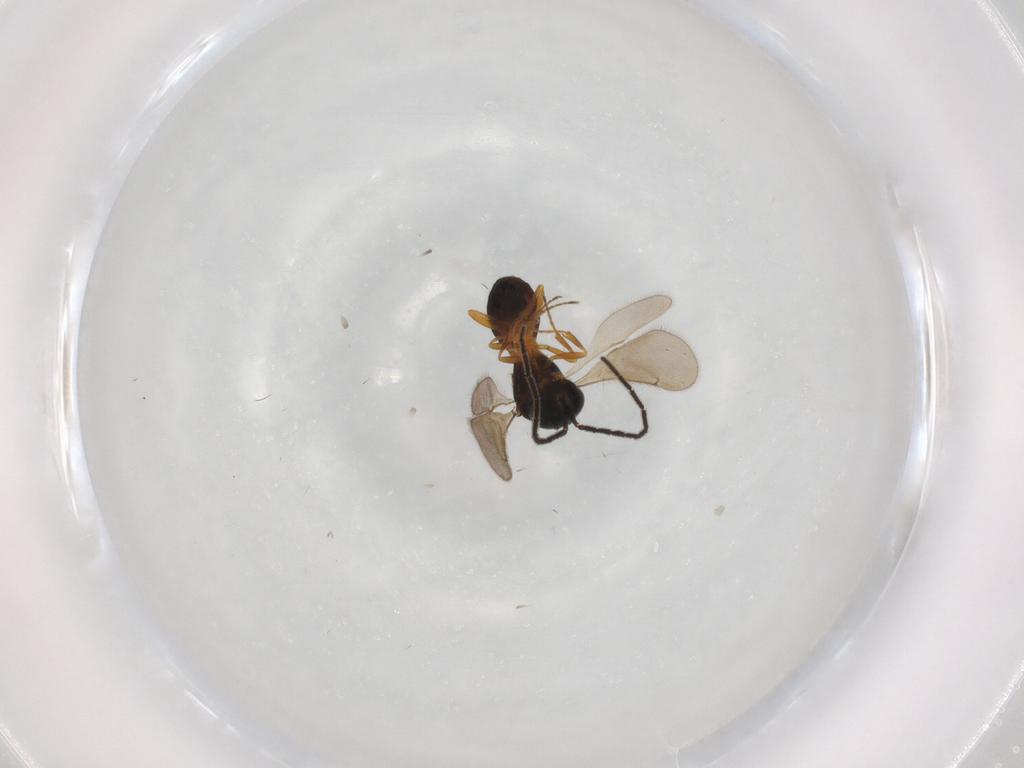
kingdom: Animalia
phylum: Arthropoda
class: Insecta
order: Hymenoptera
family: Scelionidae
